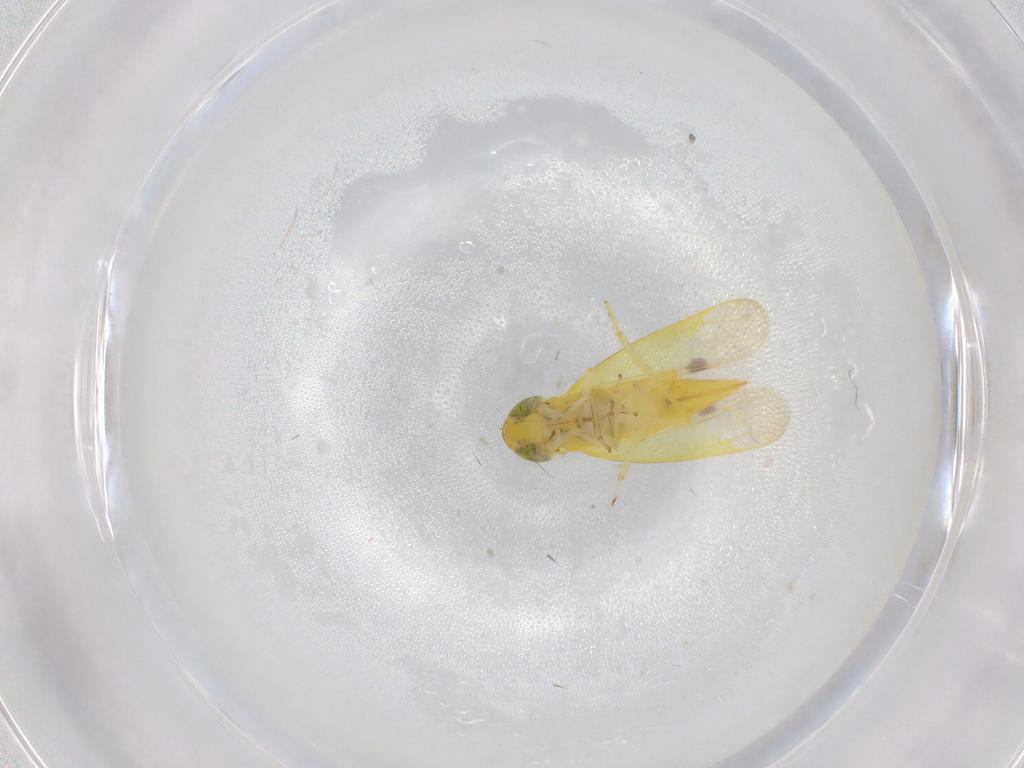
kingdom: Animalia
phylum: Arthropoda
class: Insecta
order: Hemiptera
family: Cicadellidae
